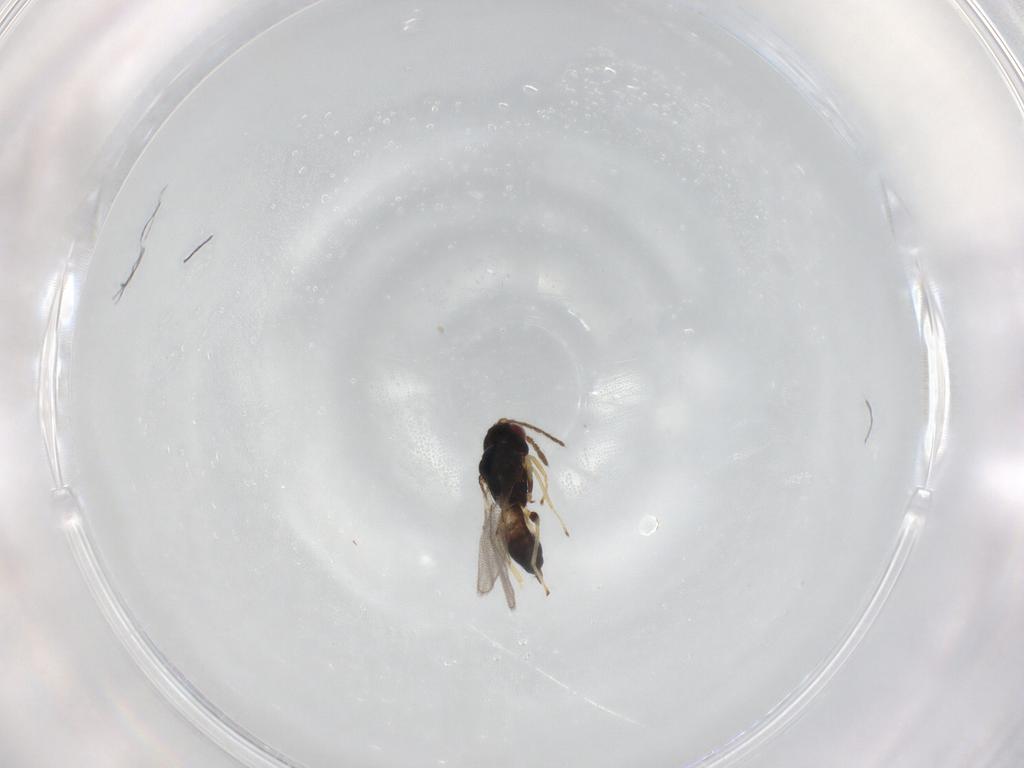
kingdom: Animalia
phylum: Arthropoda
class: Insecta
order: Hymenoptera
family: Eulophidae
